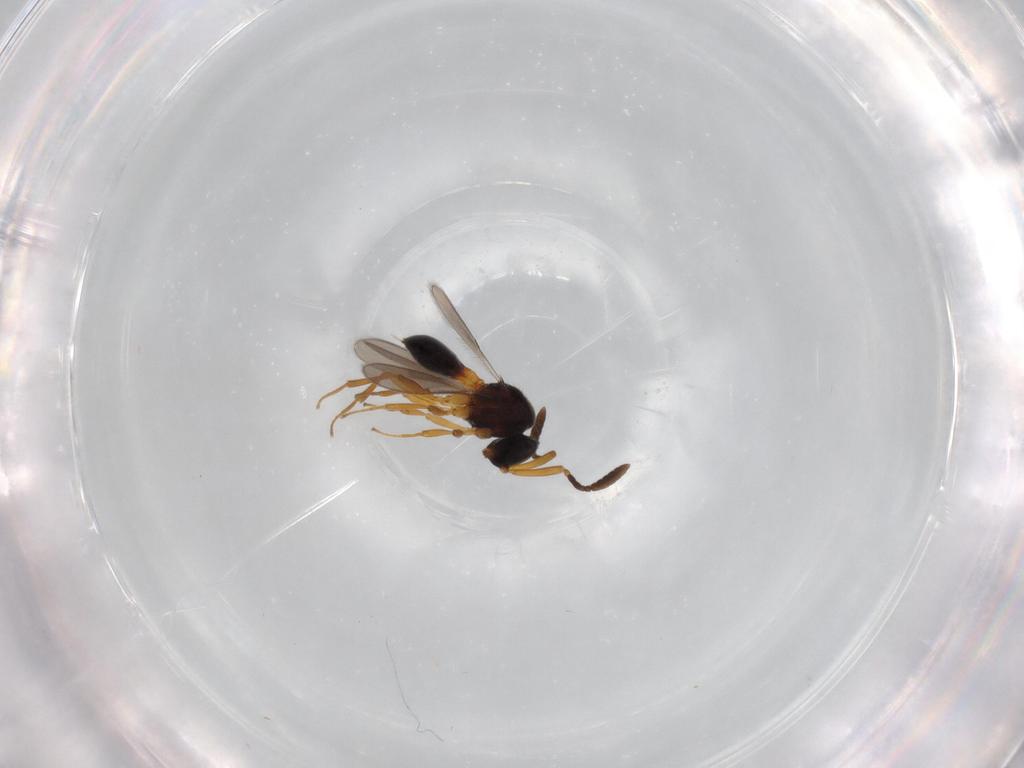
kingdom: Animalia
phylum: Arthropoda
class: Insecta
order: Hymenoptera
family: Scelionidae
